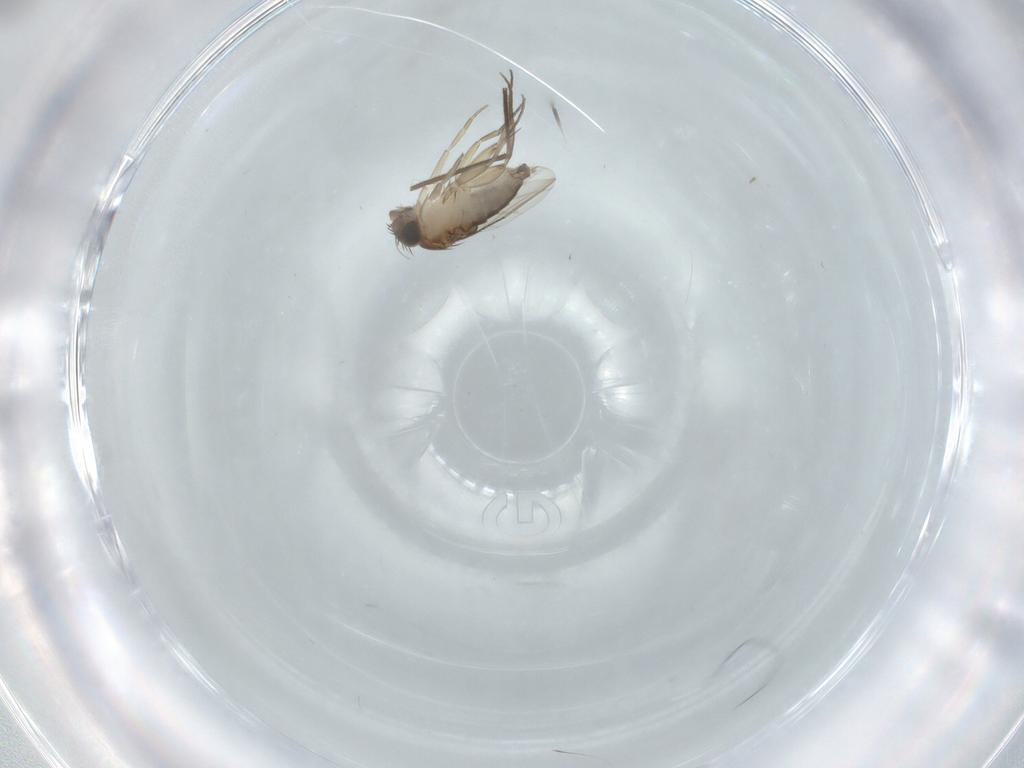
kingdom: Animalia
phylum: Arthropoda
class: Insecta
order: Diptera
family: Phoridae
